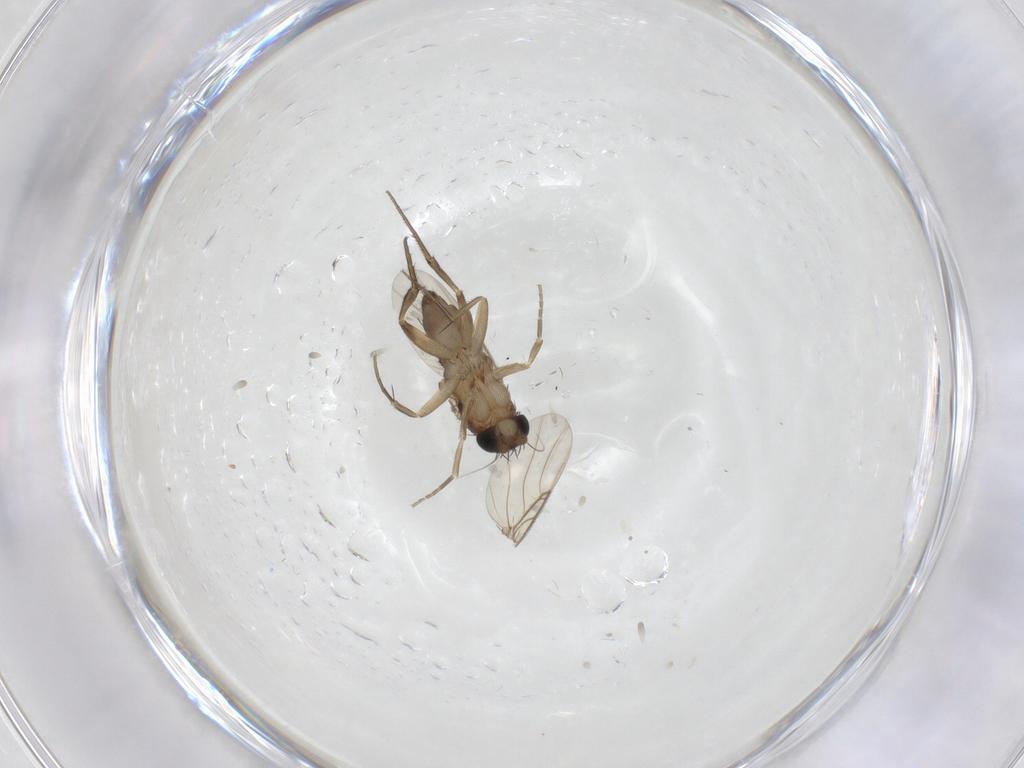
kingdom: Animalia
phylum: Arthropoda
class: Insecta
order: Diptera
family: Phoridae
